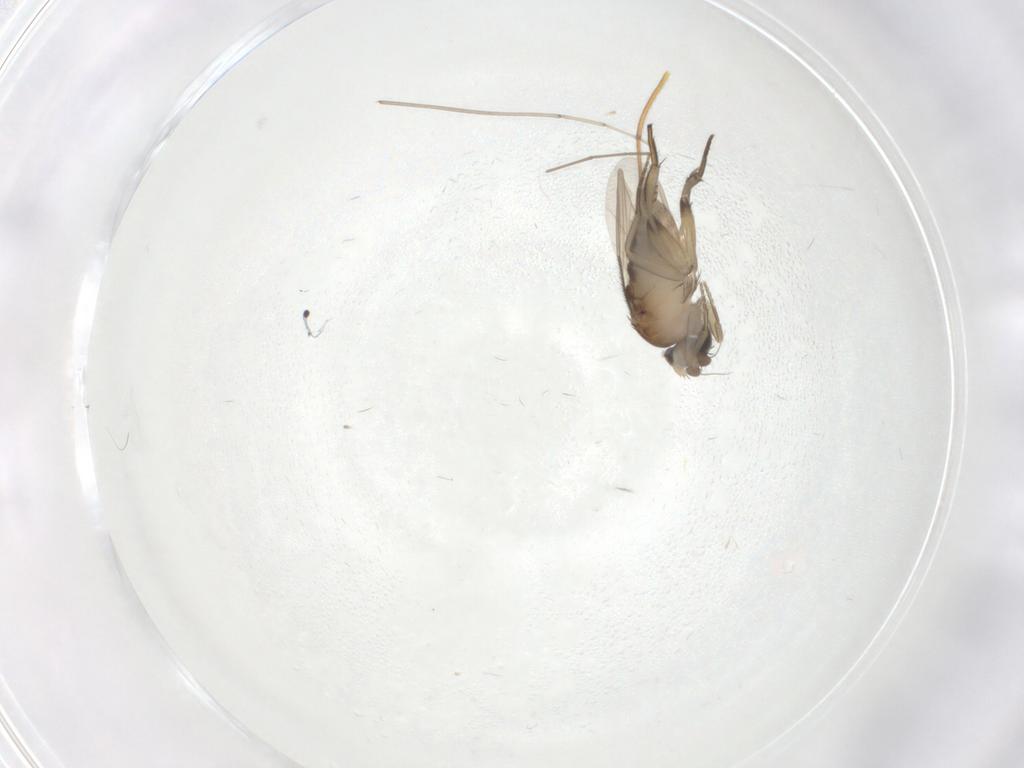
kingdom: Animalia
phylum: Arthropoda
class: Insecta
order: Diptera
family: Phoridae
